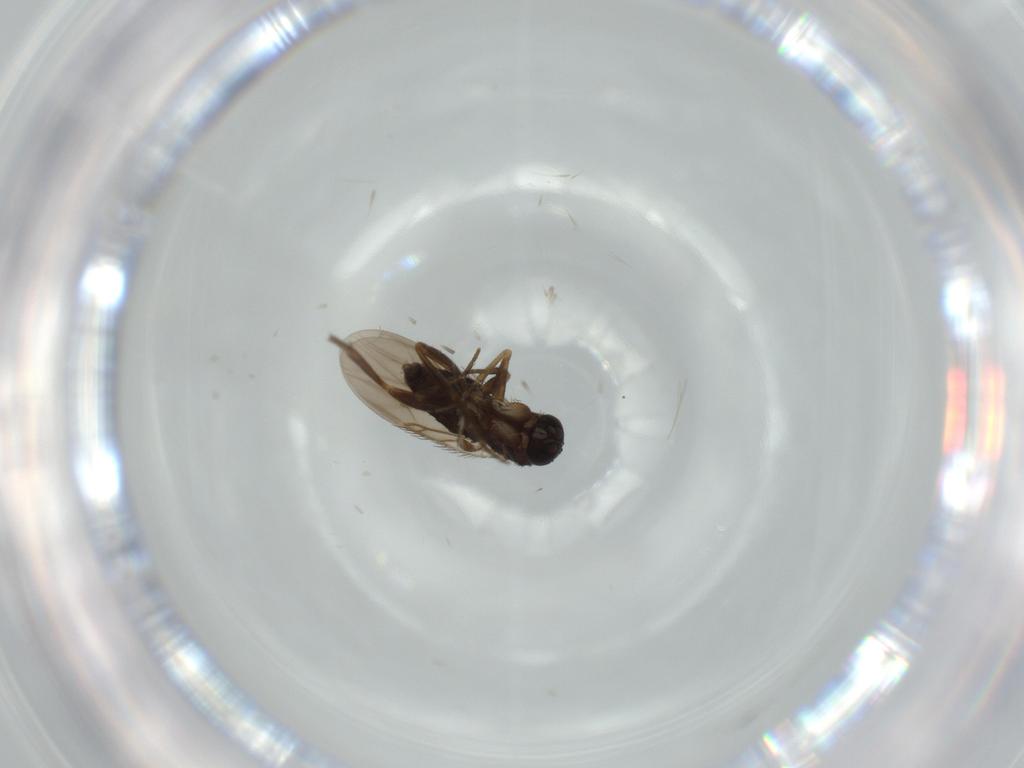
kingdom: Animalia
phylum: Arthropoda
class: Insecta
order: Diptera
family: Phoridae
